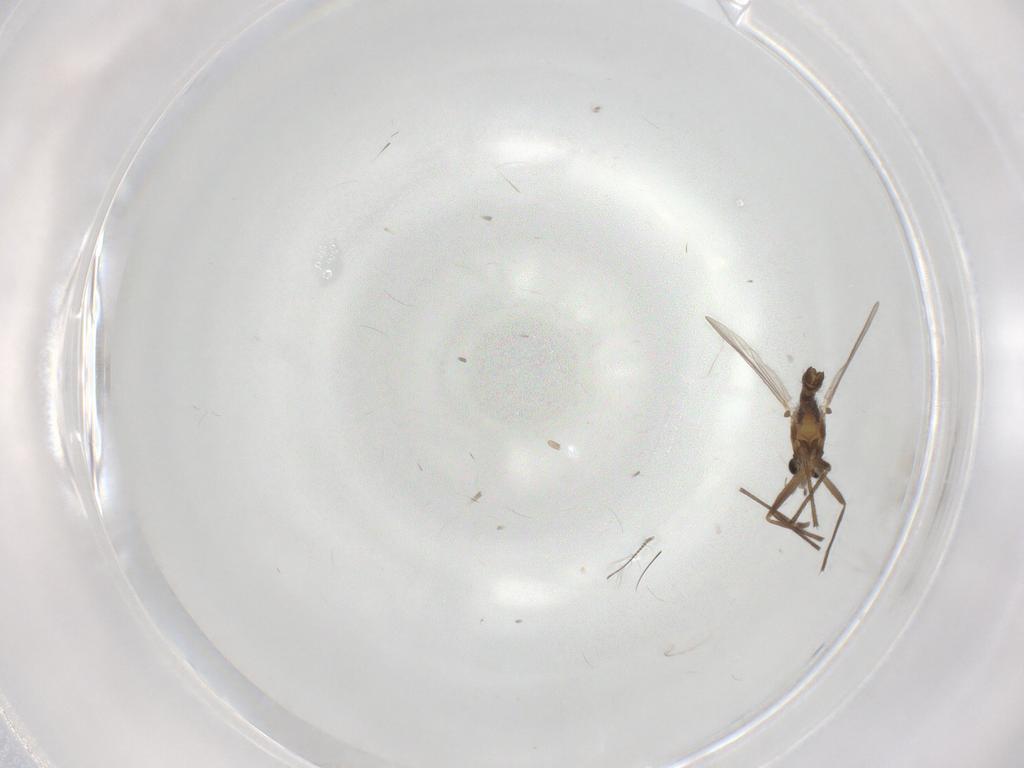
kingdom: Animalia
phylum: Arthropoda
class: Insecta
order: Diptera
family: Chironomidae
